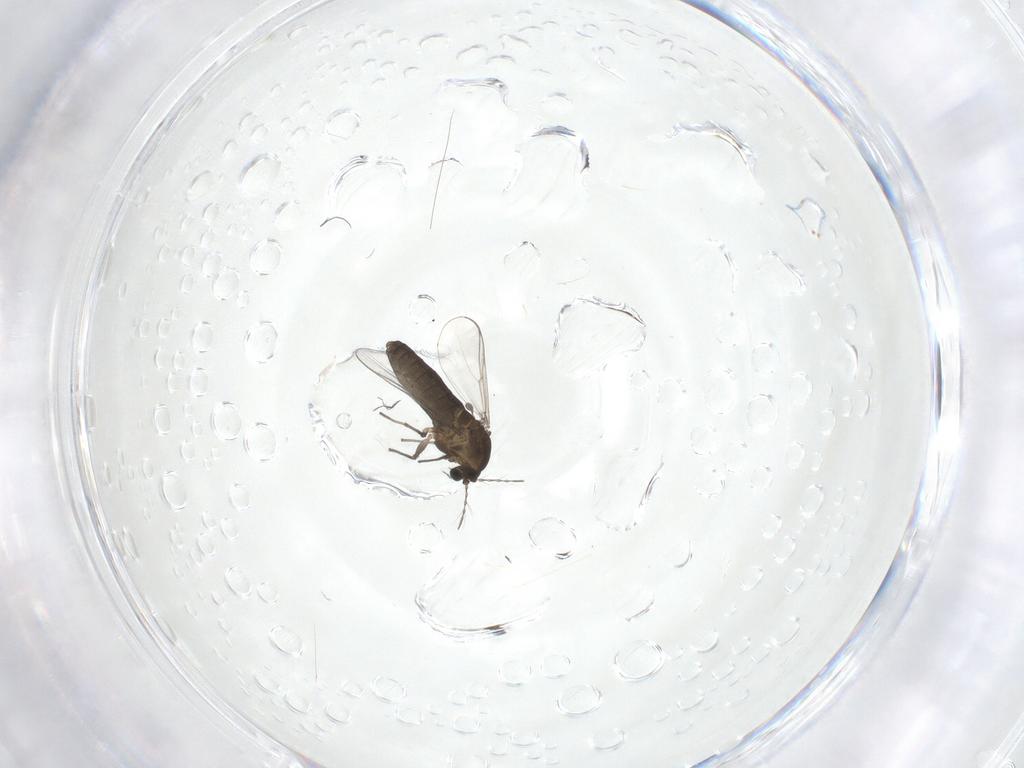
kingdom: Animalia
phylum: Arthropoda
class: Insecta
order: Diptera
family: Chironomidae
